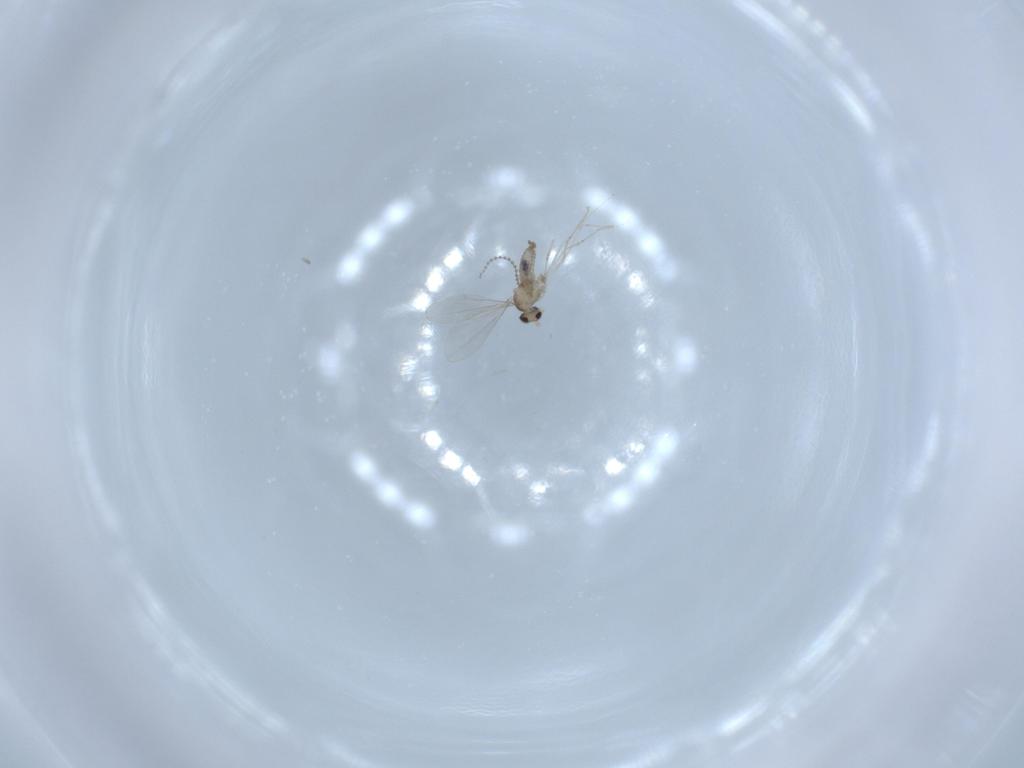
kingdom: Animalia
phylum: Arthropoda
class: Insecta
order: Diptera
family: Cecidomyiidae
